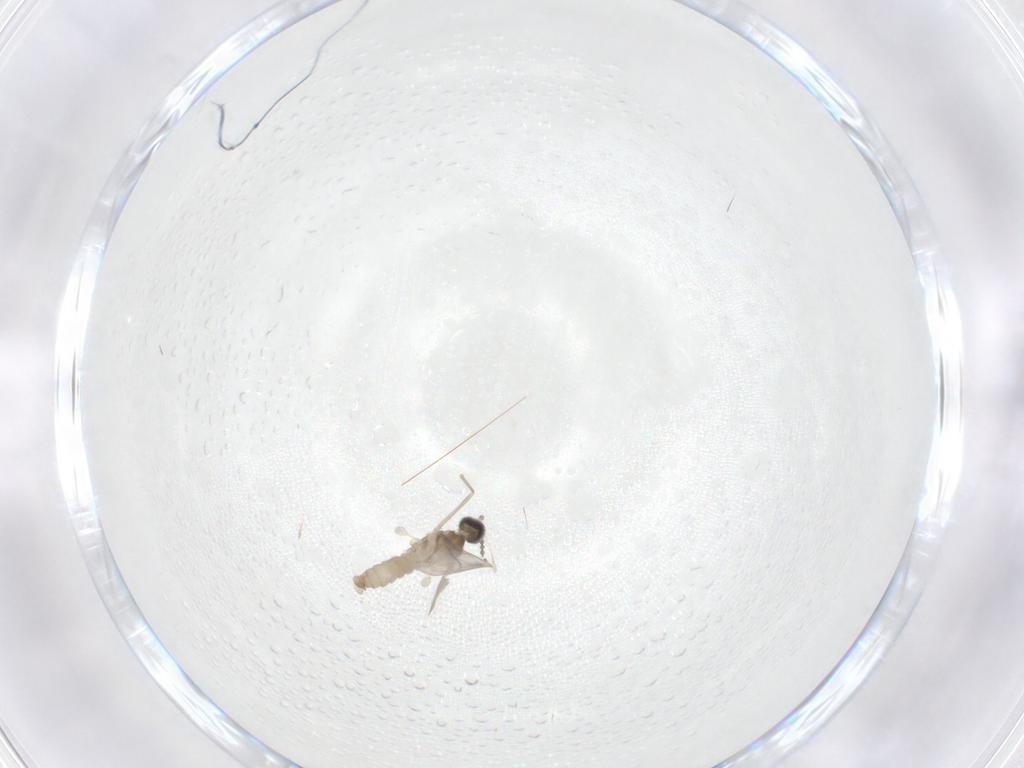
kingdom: Animalia
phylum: Arthropoda
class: Insecta
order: Diptera
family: Cecidomyiidae
